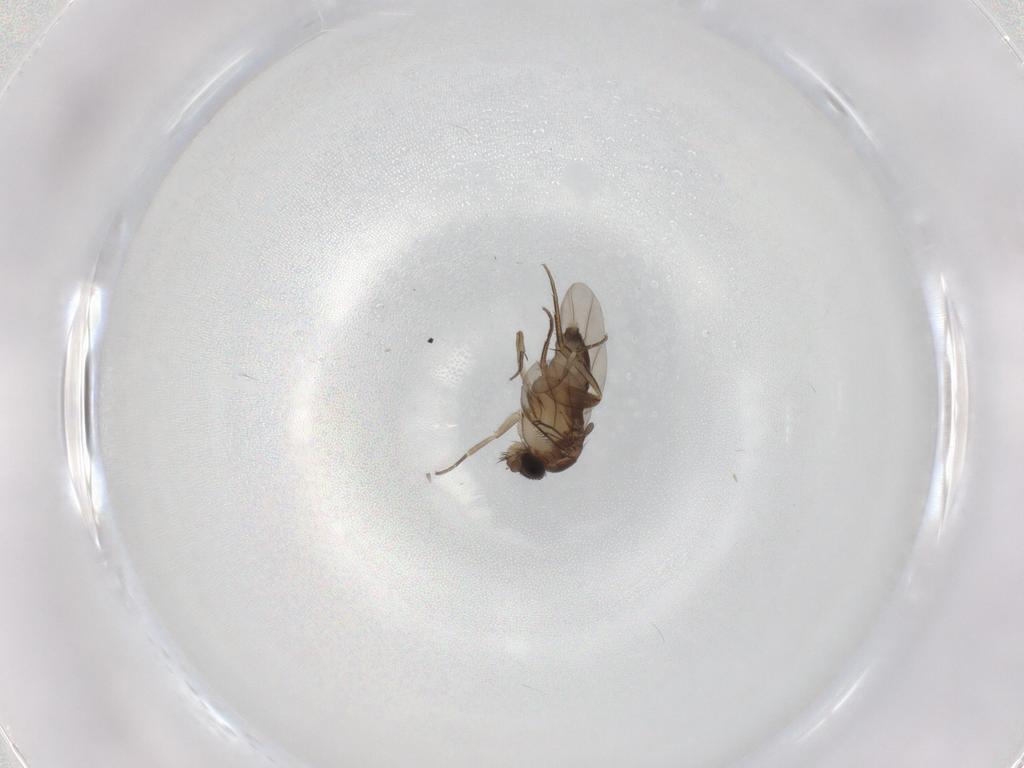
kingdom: Animalia
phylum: Arthropoda
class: Insecta
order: Diptera
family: Phoridae
